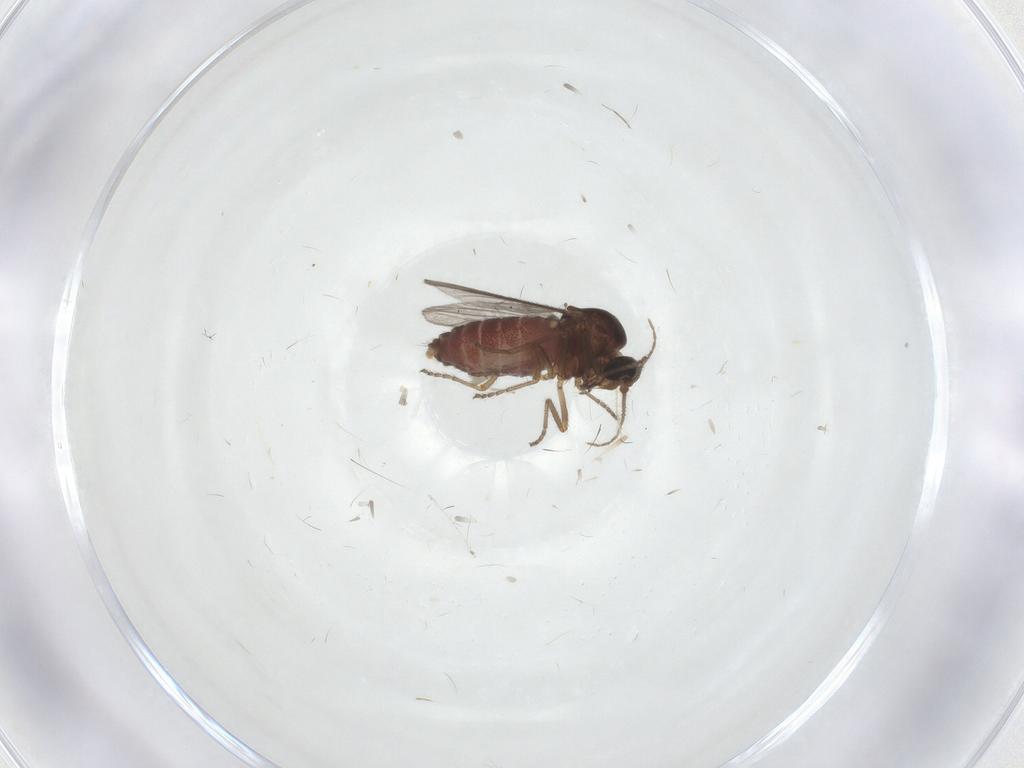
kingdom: Animalia
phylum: Arthropoda
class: Insecta
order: Diptera
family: Ceratopogonidae
